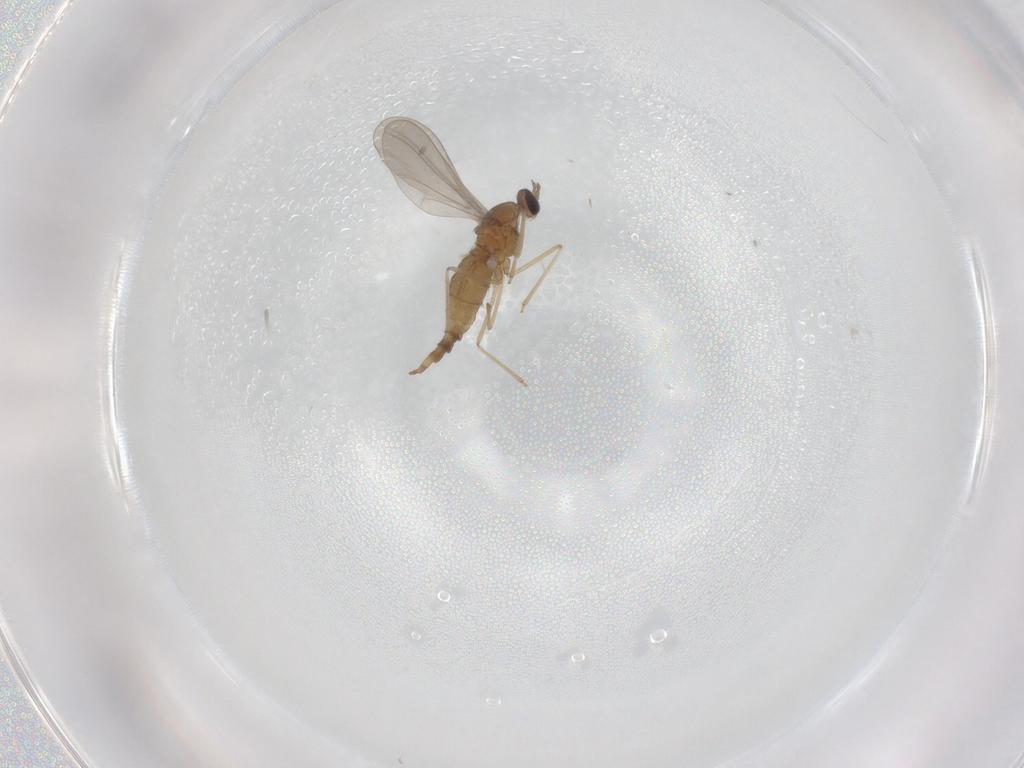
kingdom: Animalia
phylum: Arthropoda
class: Insecta
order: Diptera
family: Cecidomyiidae
